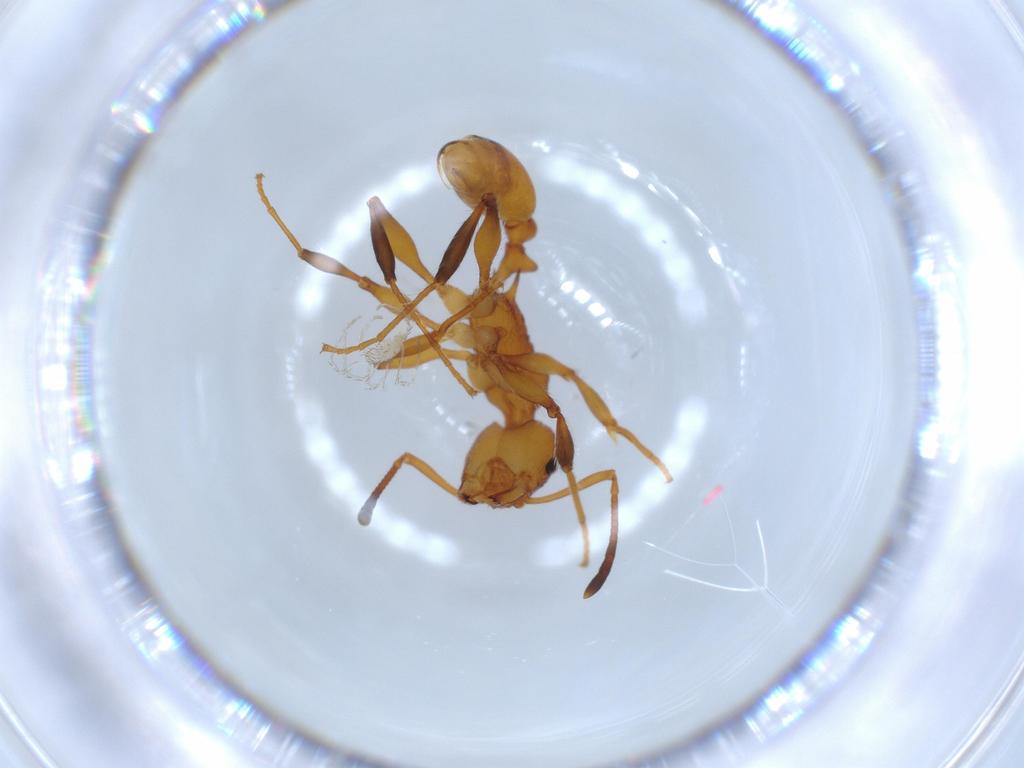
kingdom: Animalia
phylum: Arthropoda
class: Insecta
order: Hymenoptera
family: Formicidae
